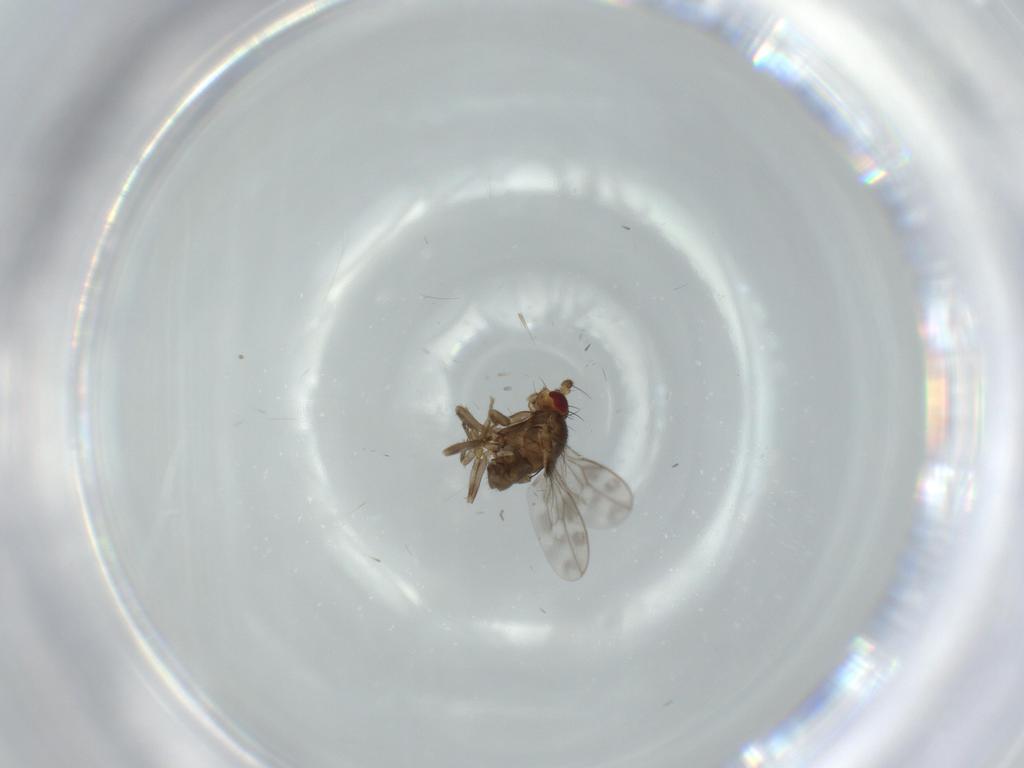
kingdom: Animalia
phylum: Arthropoda
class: Insecta
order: Diptera
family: Sphaeroceridae
